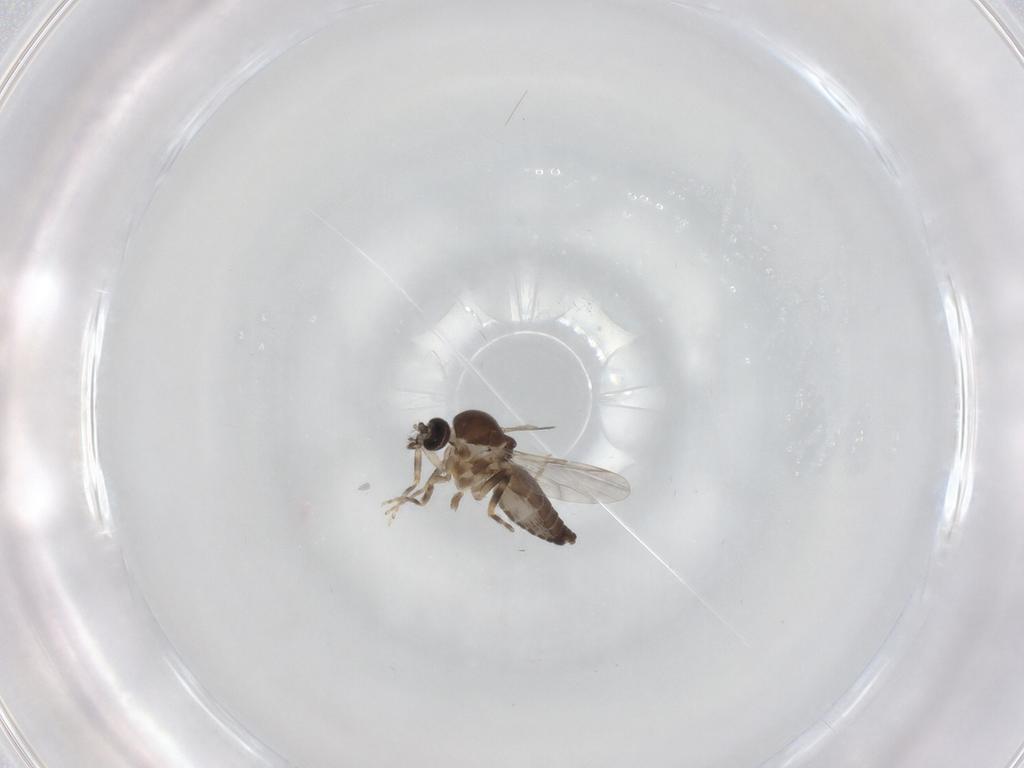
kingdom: Animalia
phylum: Arthropoda
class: Insecta
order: Diptera
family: Ceratopogonidae
